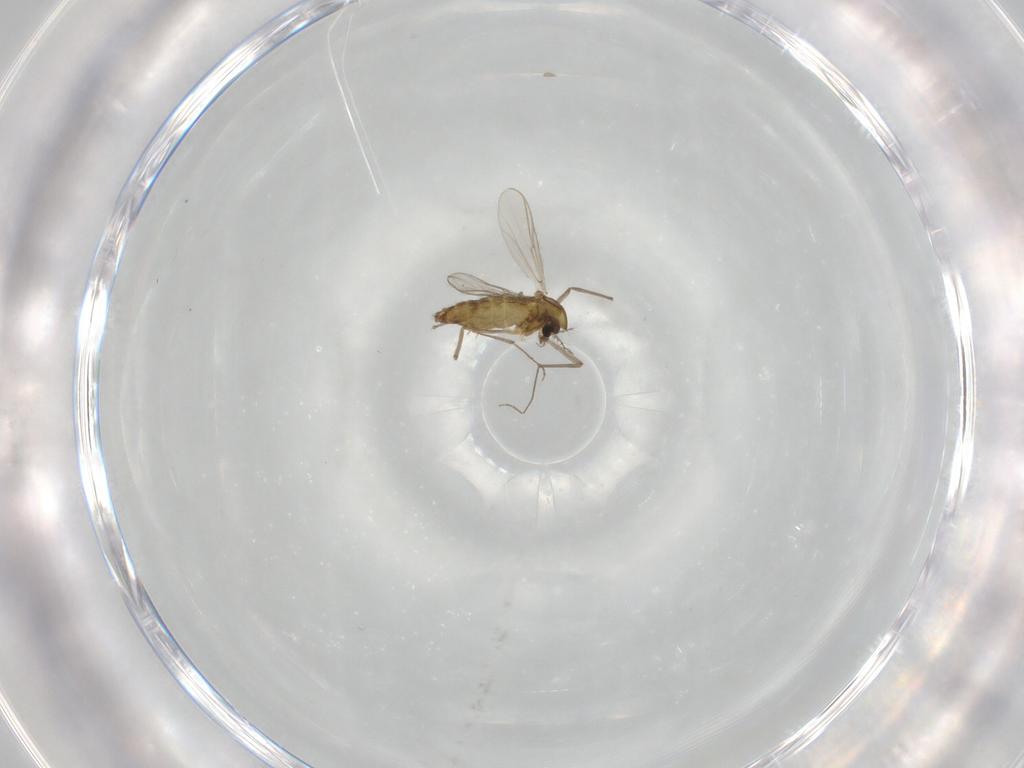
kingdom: Animalia
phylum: Arthropoda
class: Insecta
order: Diptera
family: Chironomidae
